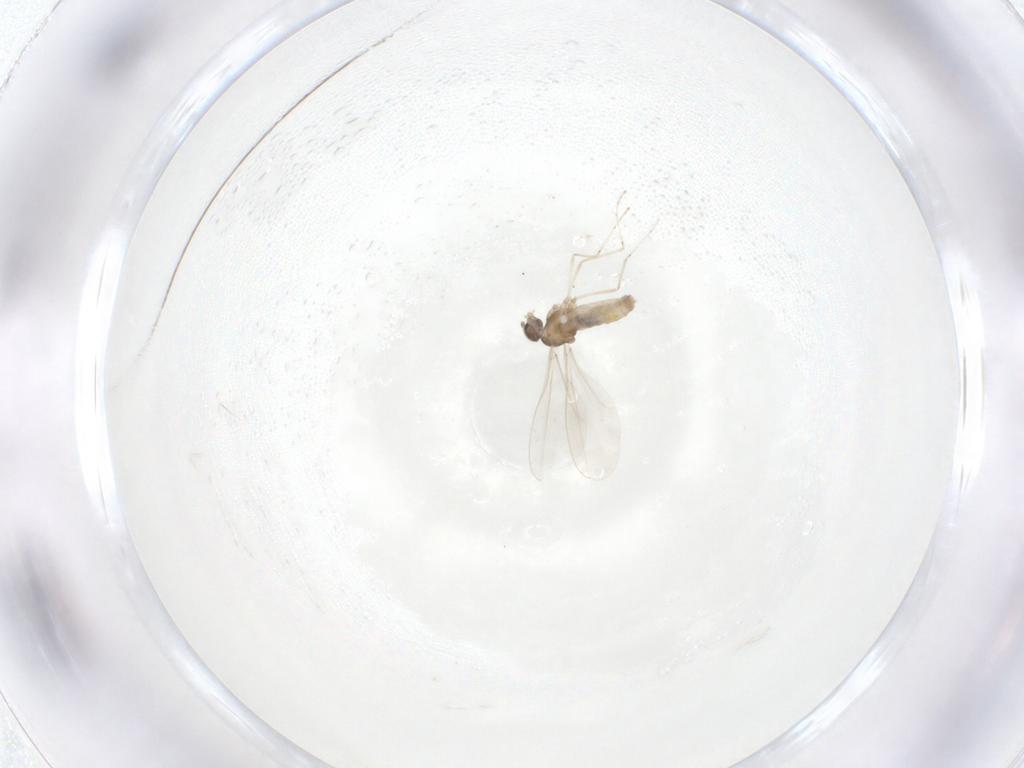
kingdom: Animalia
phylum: Arthropoda
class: Insecta
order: Diptera
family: Cecidomyiidae
